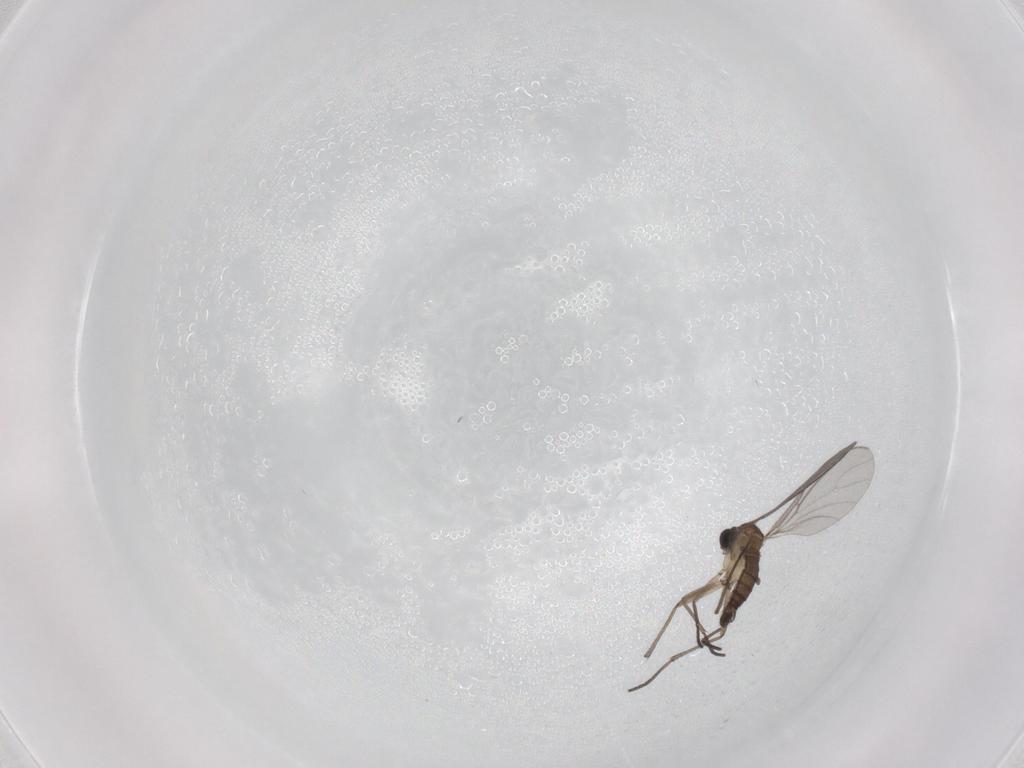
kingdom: Animalia
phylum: Arthropoda
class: Insecta
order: Diptera
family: Sciaridae
